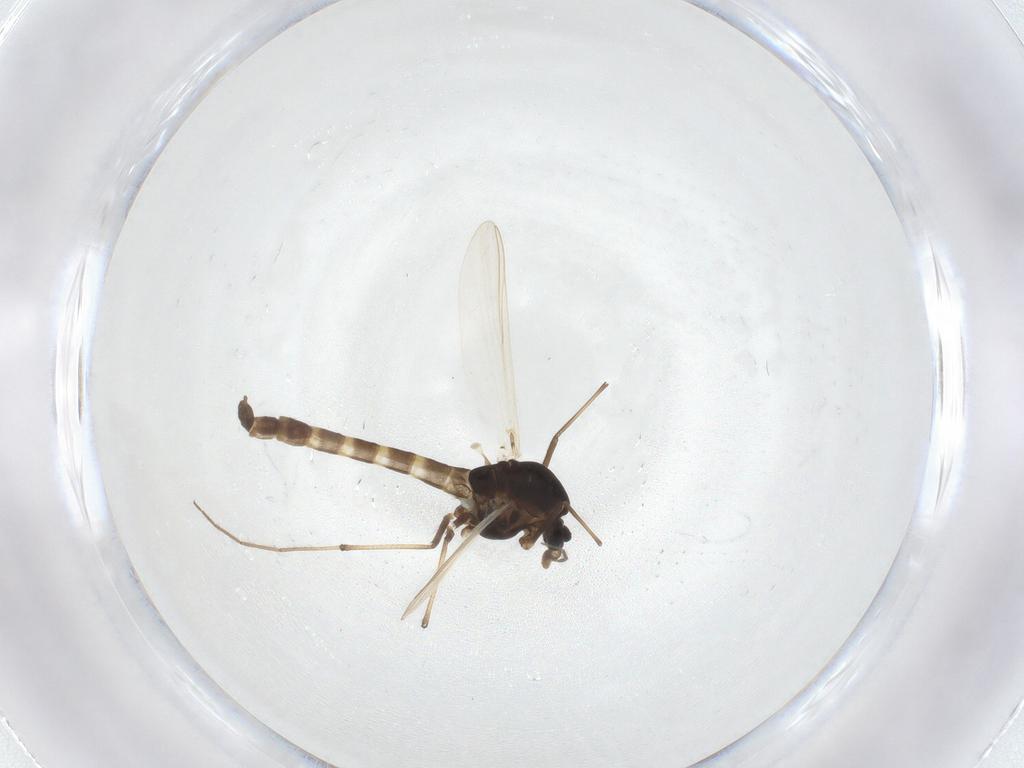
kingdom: Animalia
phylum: Arthropoda
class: Insecta
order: Diptera
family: Chironomidae
